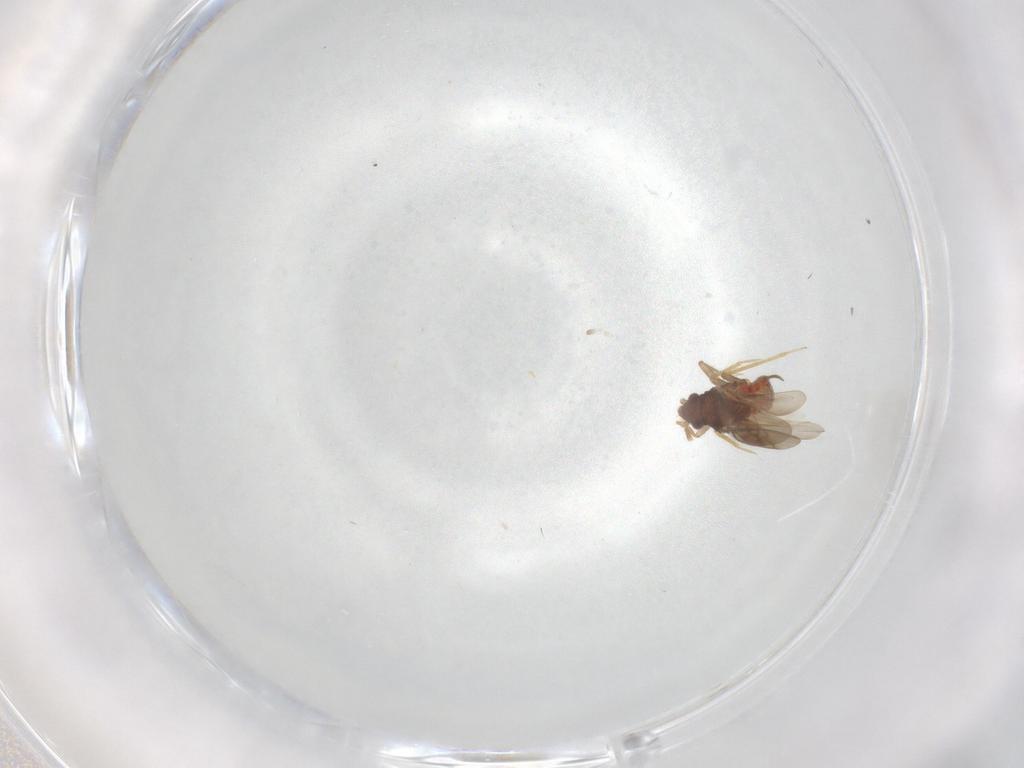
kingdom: Animalia
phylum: Arthropoda
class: Insecta
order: Hemiptera
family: Ceratocombidae
